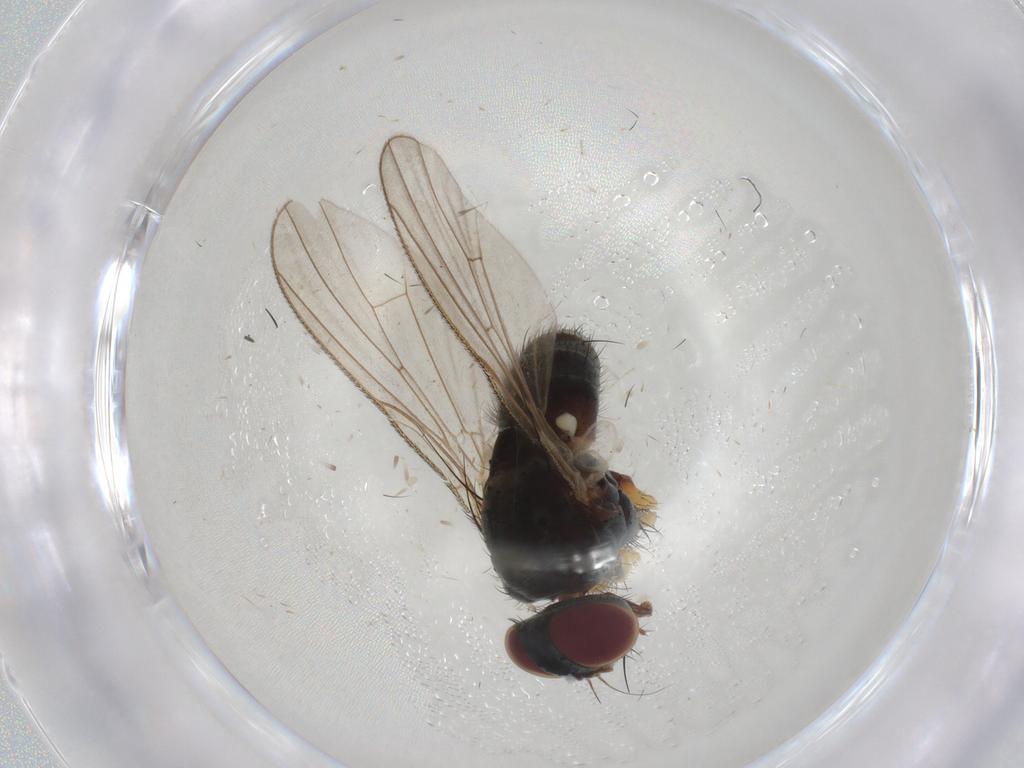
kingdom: Animalia
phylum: Arthropoda
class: Insecta
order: Diptera
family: Muscidae
